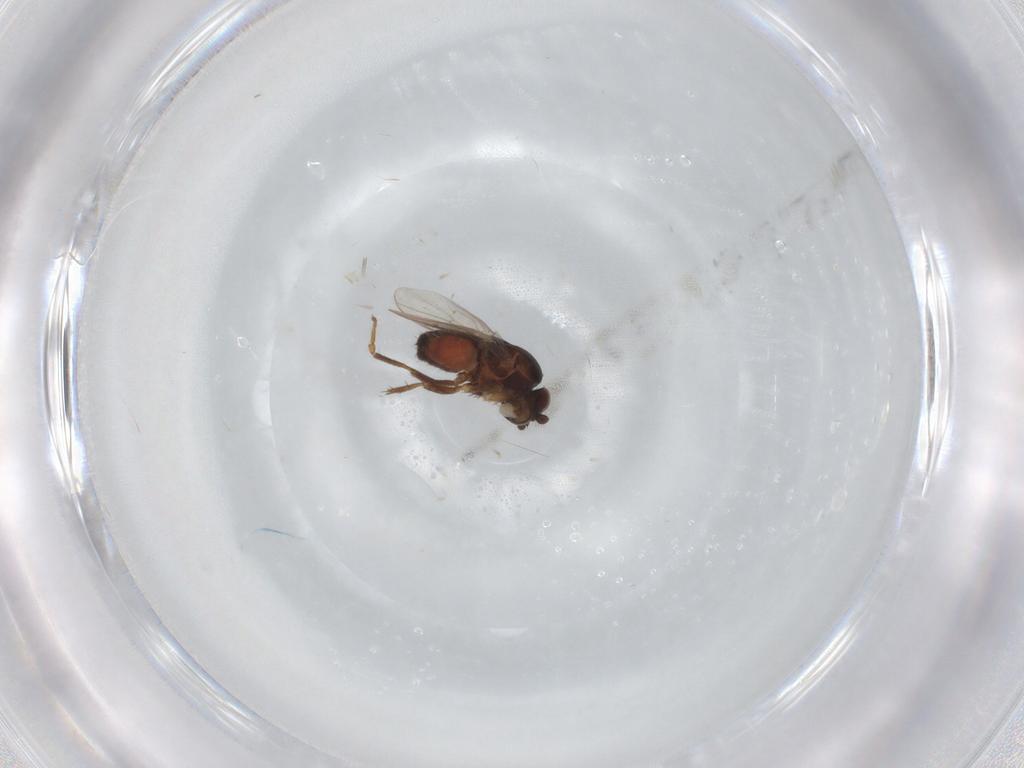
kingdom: Animalia
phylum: Arthropoda
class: Insecta
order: Diptera
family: Sphaeroceridae
